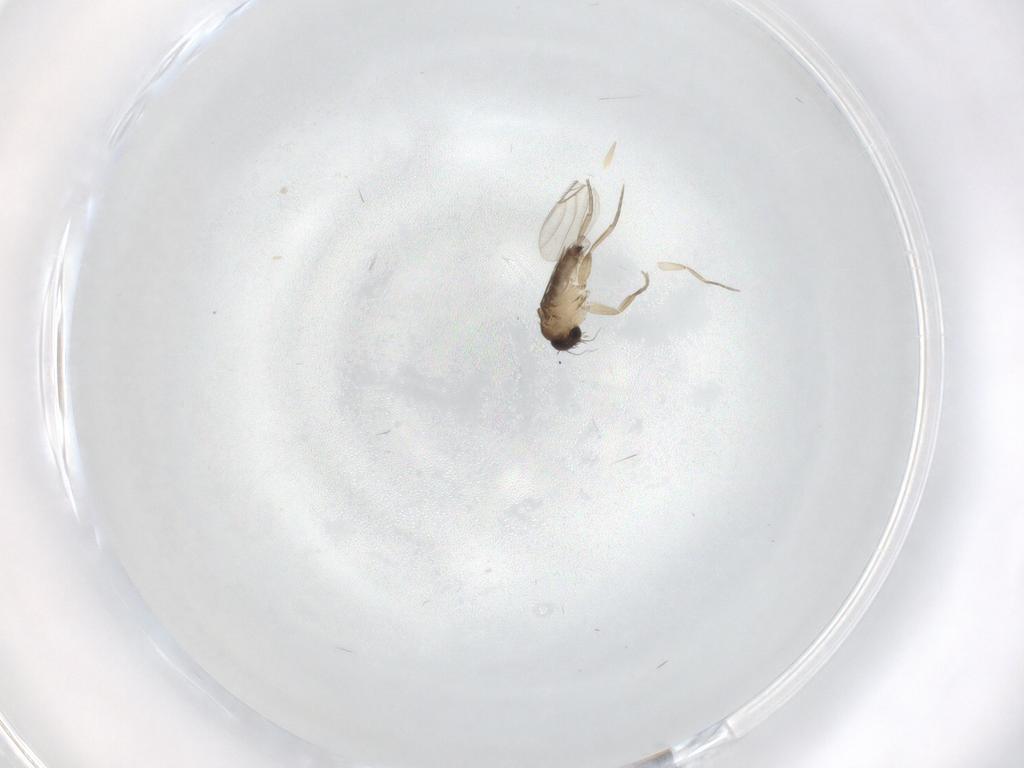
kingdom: Animalia
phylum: Arthropoda
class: Insecta
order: Diptera
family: Phoridae
